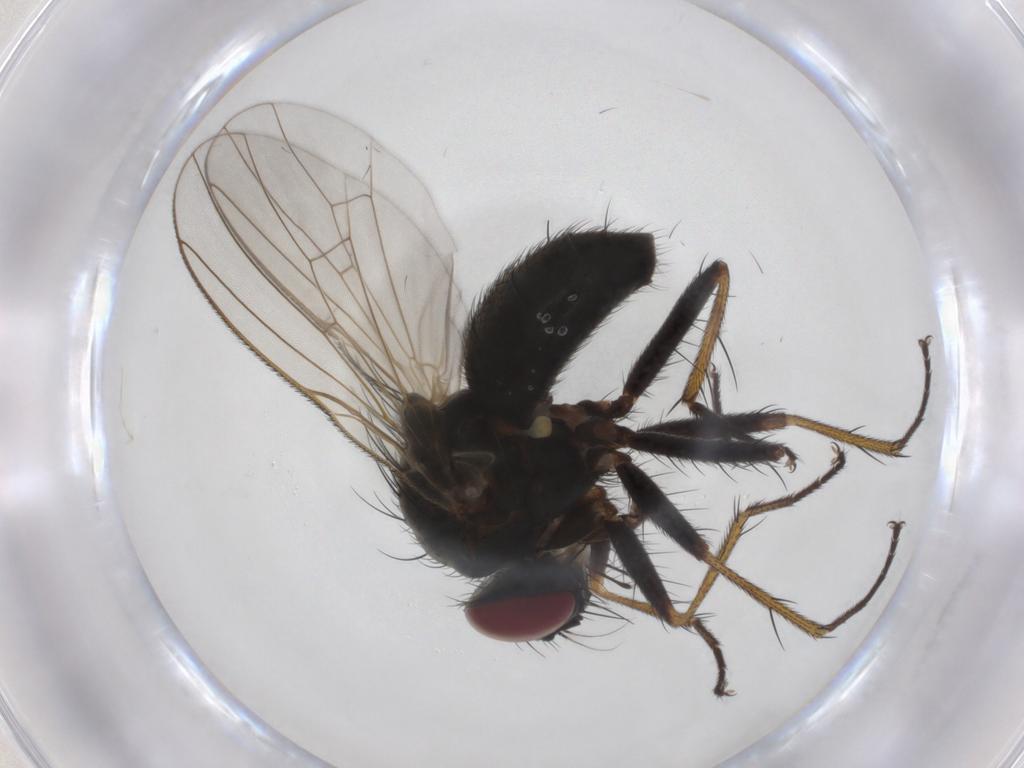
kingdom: Animalia
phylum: Arthropoda
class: Insecta
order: Diptera
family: Muscidae
